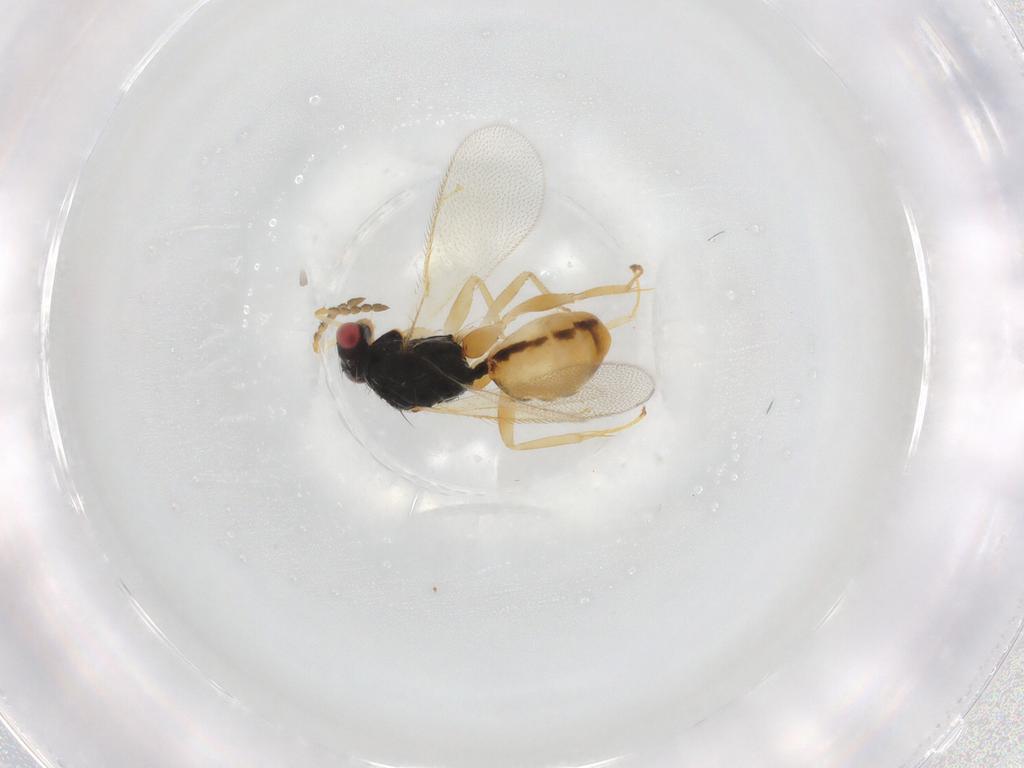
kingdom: Animalia
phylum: Arthropoda
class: Insecta
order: Hymenoptera
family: Eulophidae
